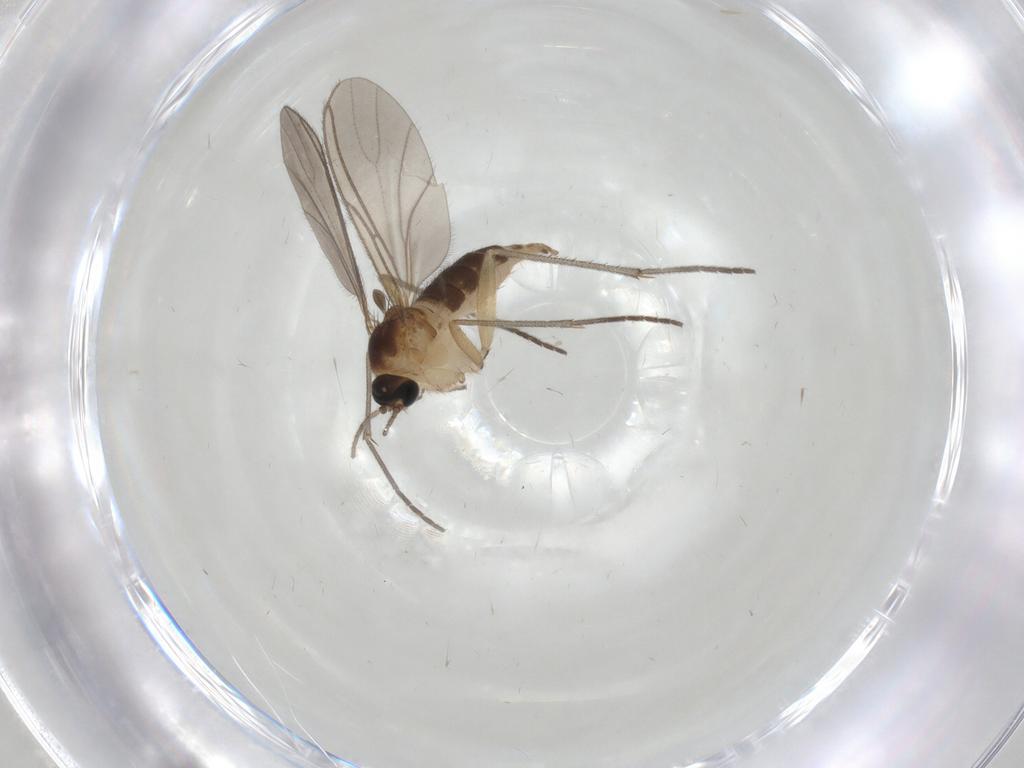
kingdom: Animalia
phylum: Arthropoda
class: Insecta
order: Diptera
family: Sciaridae
